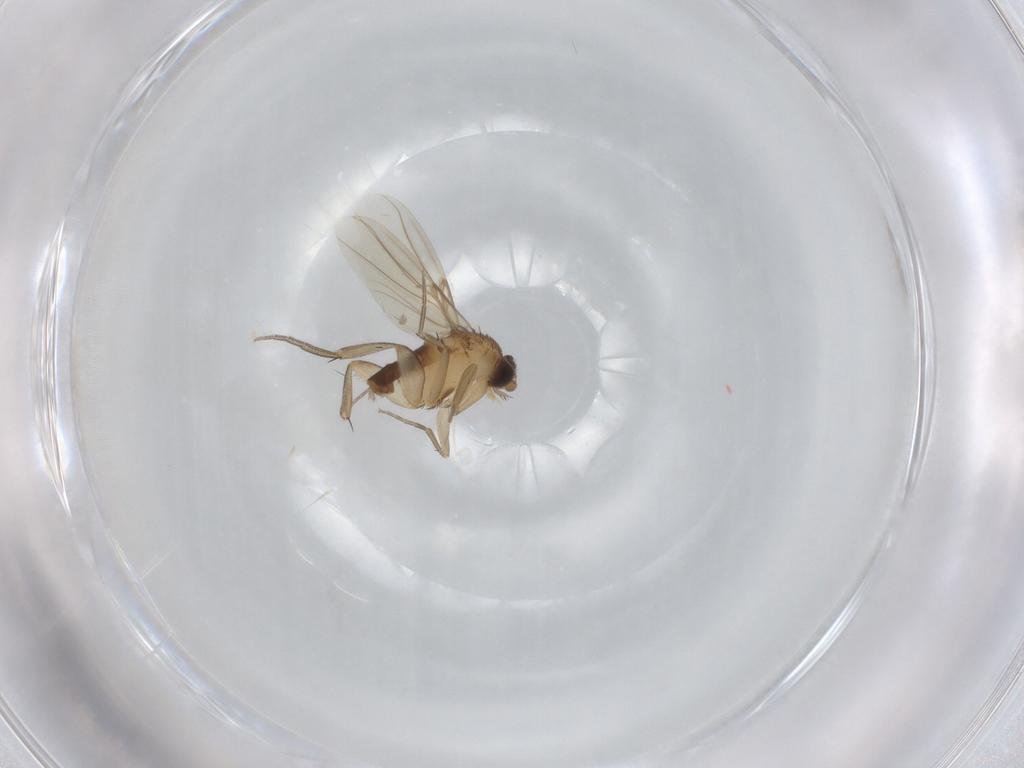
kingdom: Animalia
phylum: Arthropoda
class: Insecta
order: Diptera
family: Phoridae
